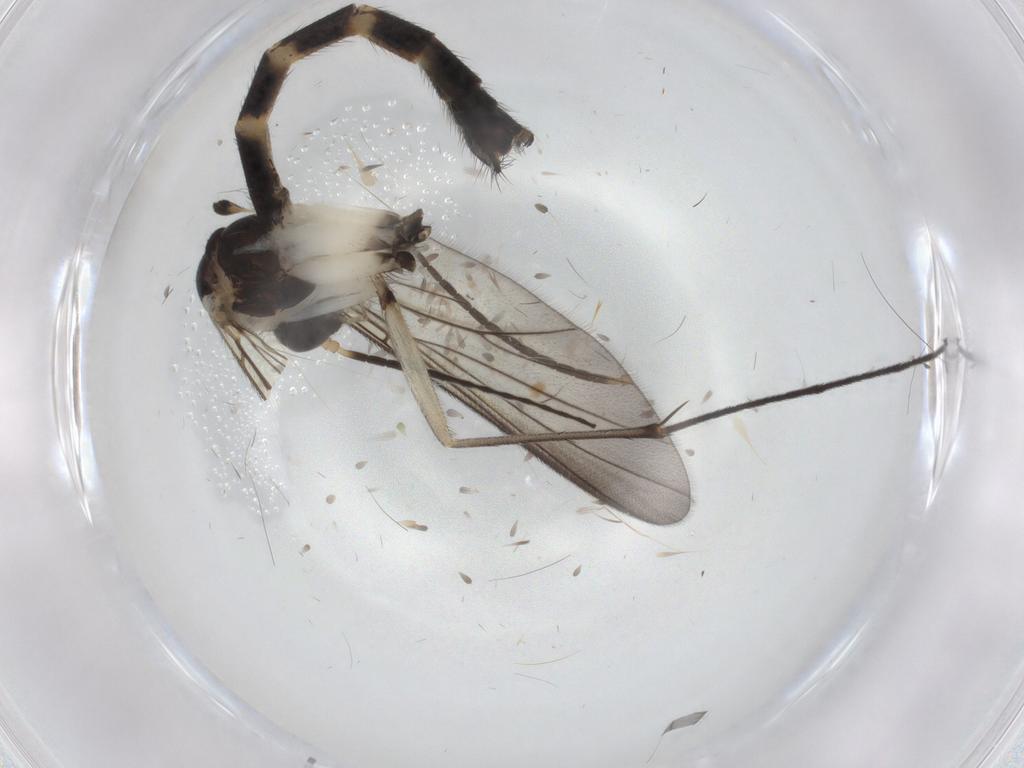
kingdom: Animalia
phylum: Arthropoda
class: Insecta
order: Diptera
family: Mycetophilidae
